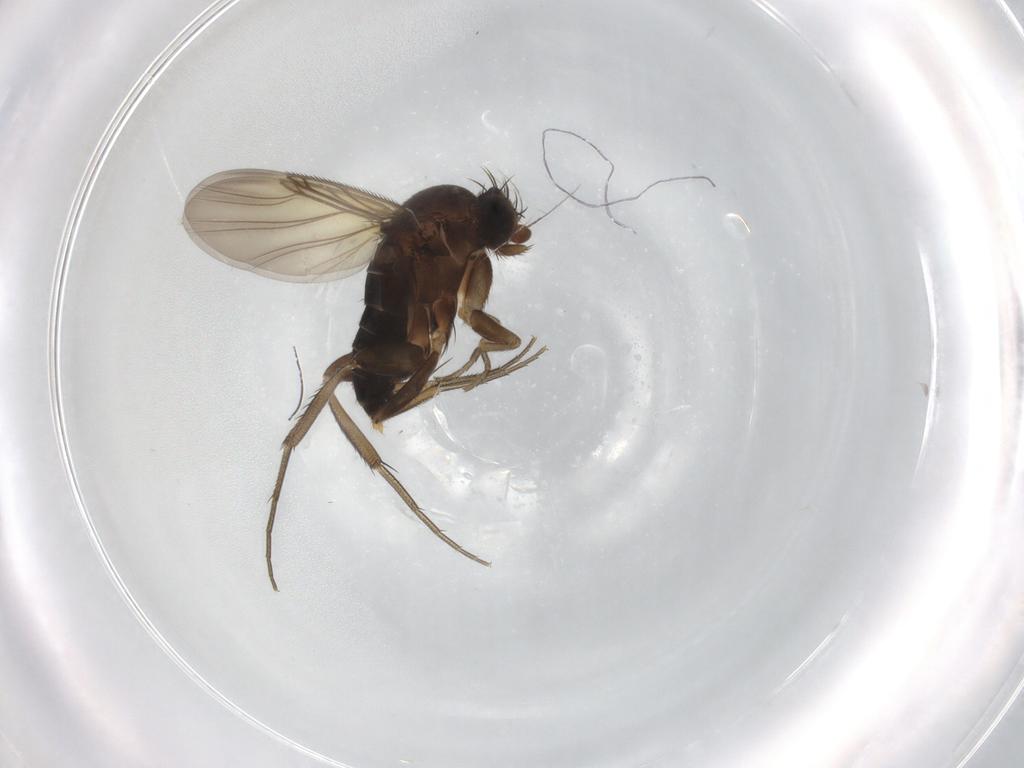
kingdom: Animalia
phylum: Arthropoda
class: Insecta
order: Diptera
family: Phoridae
